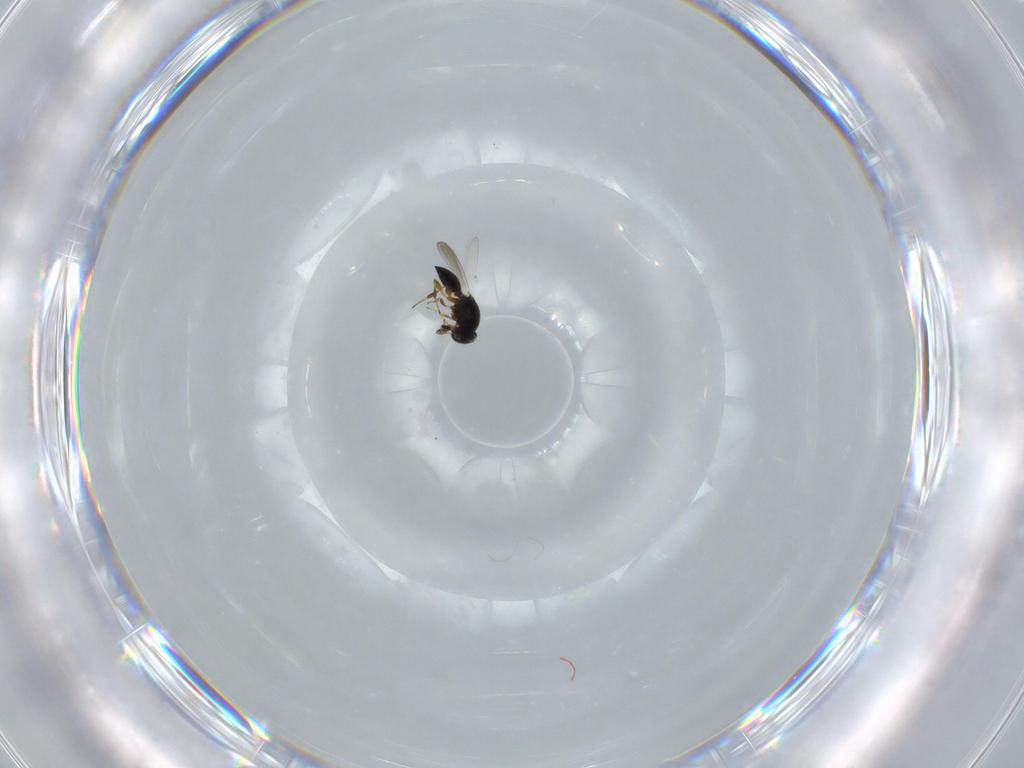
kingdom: Animalia
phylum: Arthropoda
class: Insecta
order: Hymenoptera
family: Platygastridae
